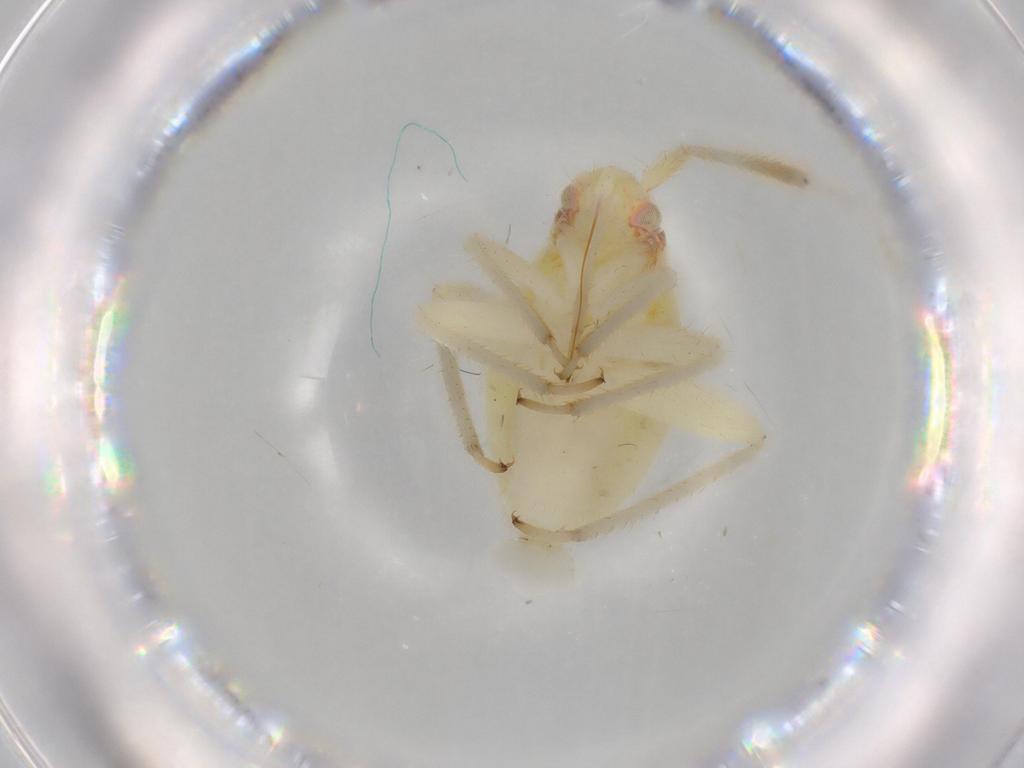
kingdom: Animalia
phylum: Arthropoda
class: Insecta
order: Hemiptera
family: Miridae
